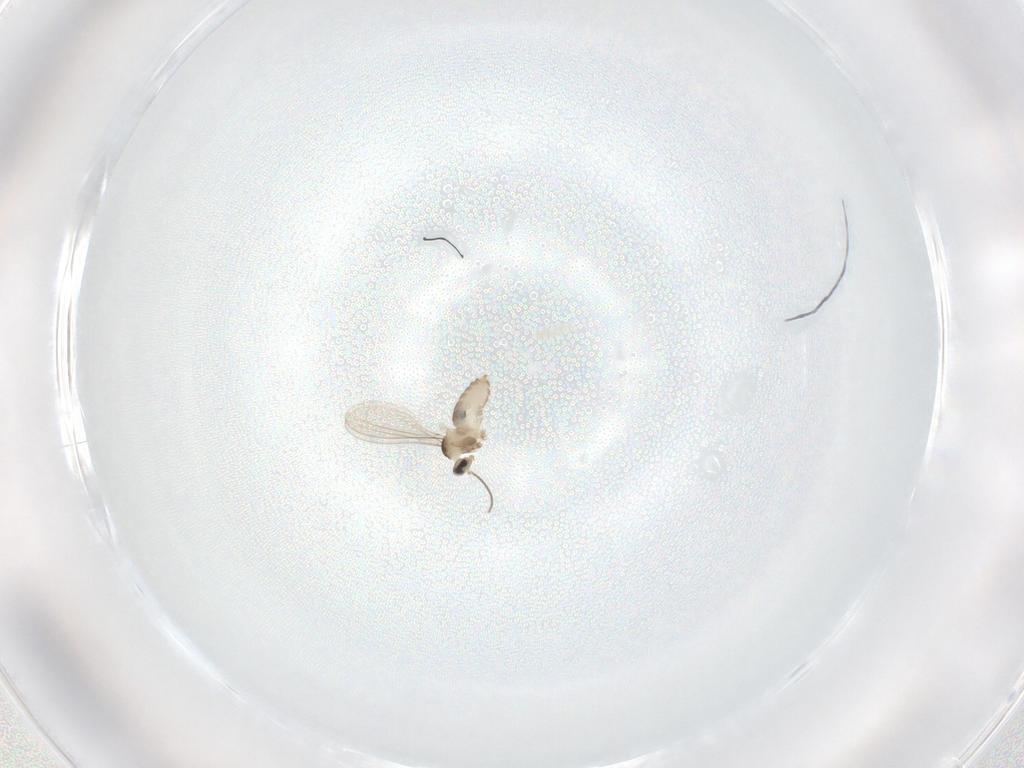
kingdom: Animalia
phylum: Arthropoda
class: Insecta
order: Diptera
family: Cecidomyiidae
